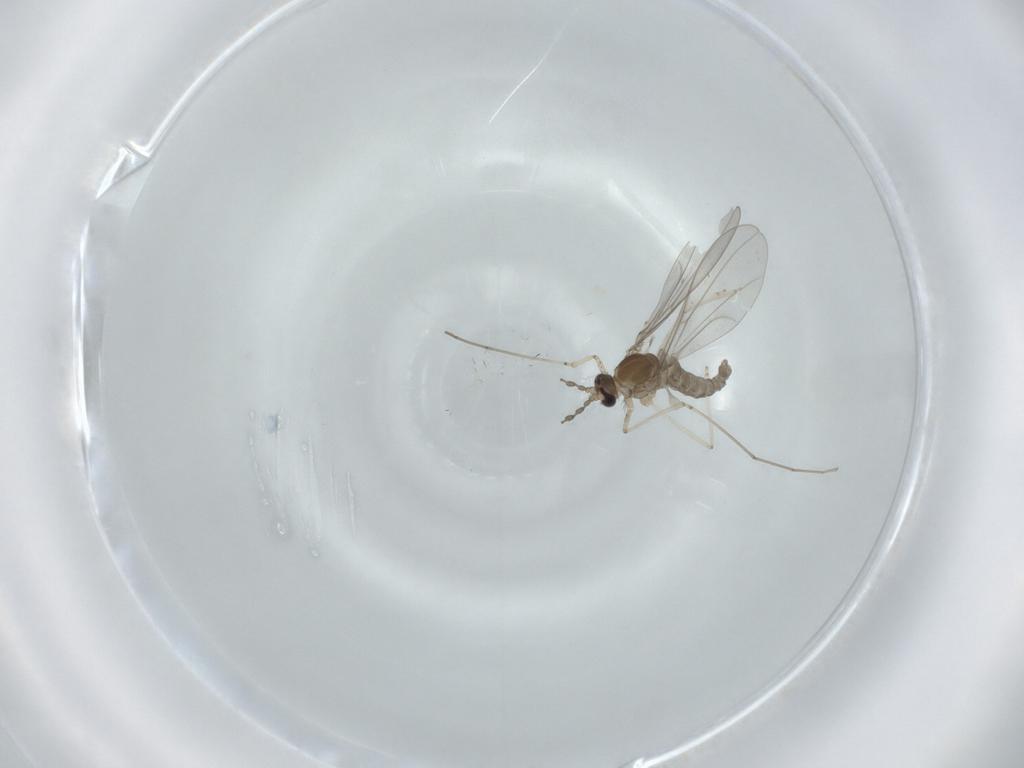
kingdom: Animalia
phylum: Arthropoda
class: Insecta
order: Diptera
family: Cecidomyiidae
